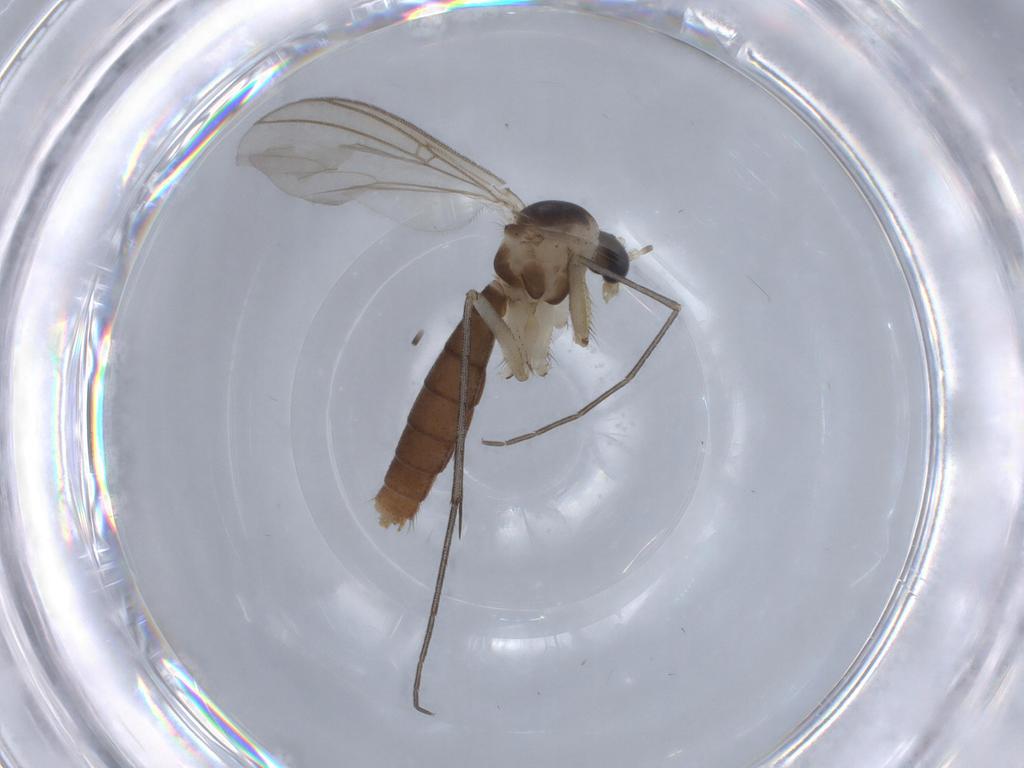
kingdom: Animalia
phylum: Arthropoda
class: Insecta
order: Diptera
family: Mycetophilidae
